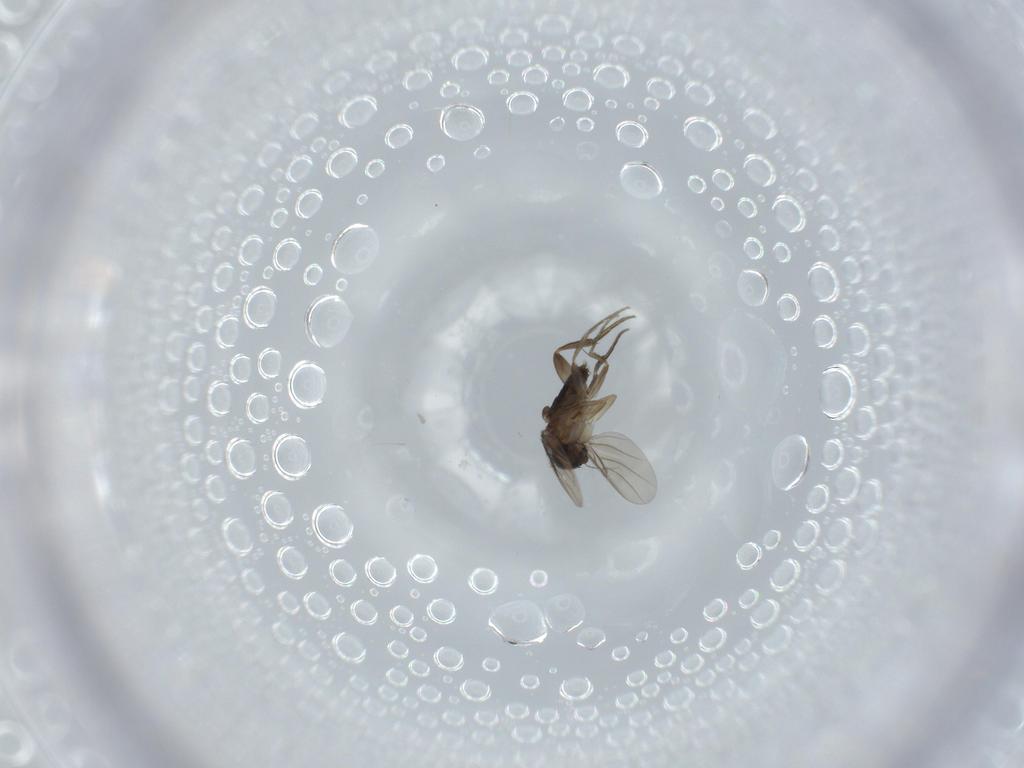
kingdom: Animalia
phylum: Arthropoda
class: Insecta
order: Diptera
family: Phoridae
